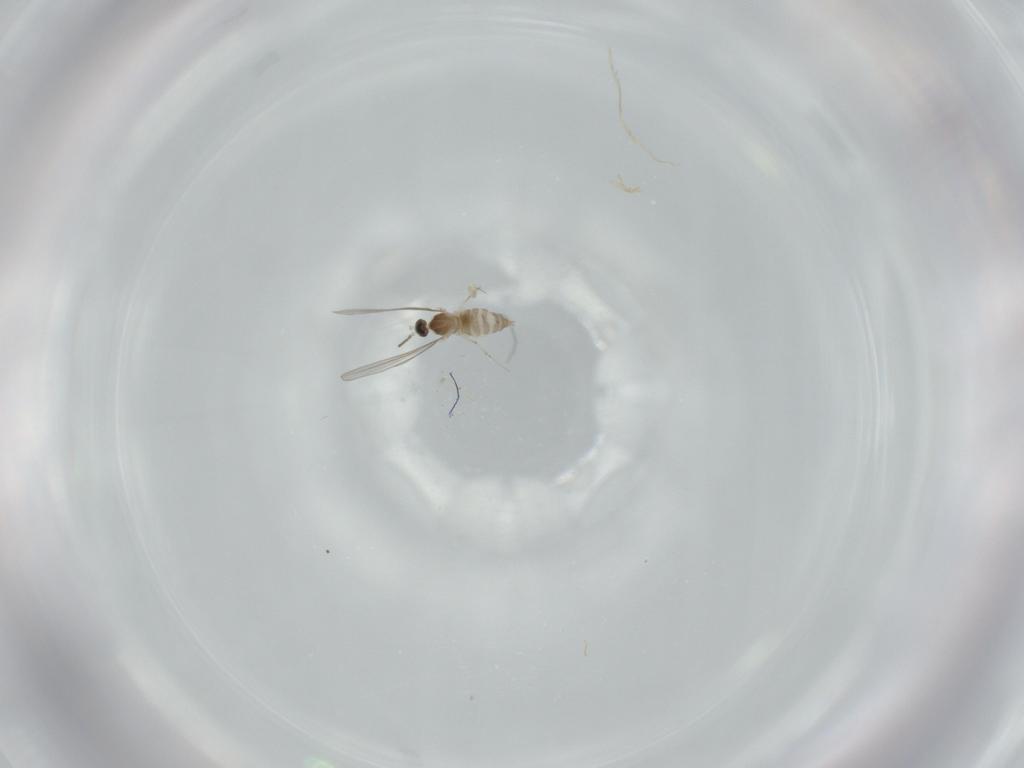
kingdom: Animalia
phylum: Arthropoda
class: Insecta
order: Diptera
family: Cecidomyiidae
